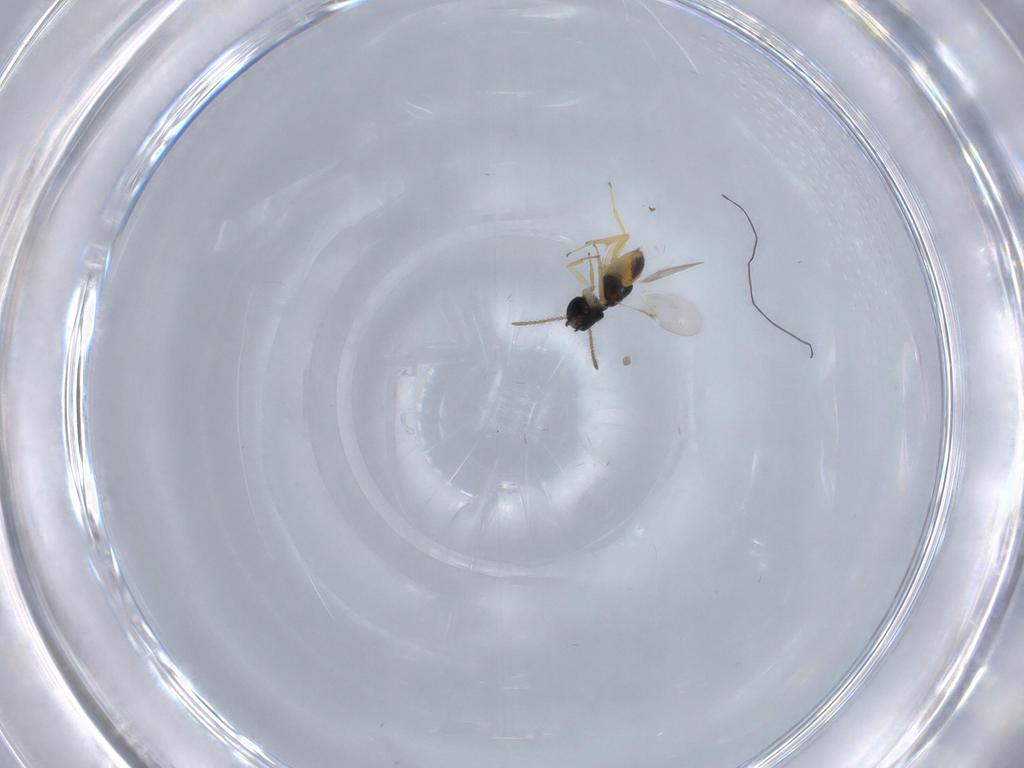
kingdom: Animalia
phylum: Arthropoda
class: Insecta
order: Hymenoptera
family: Encyrtidae
